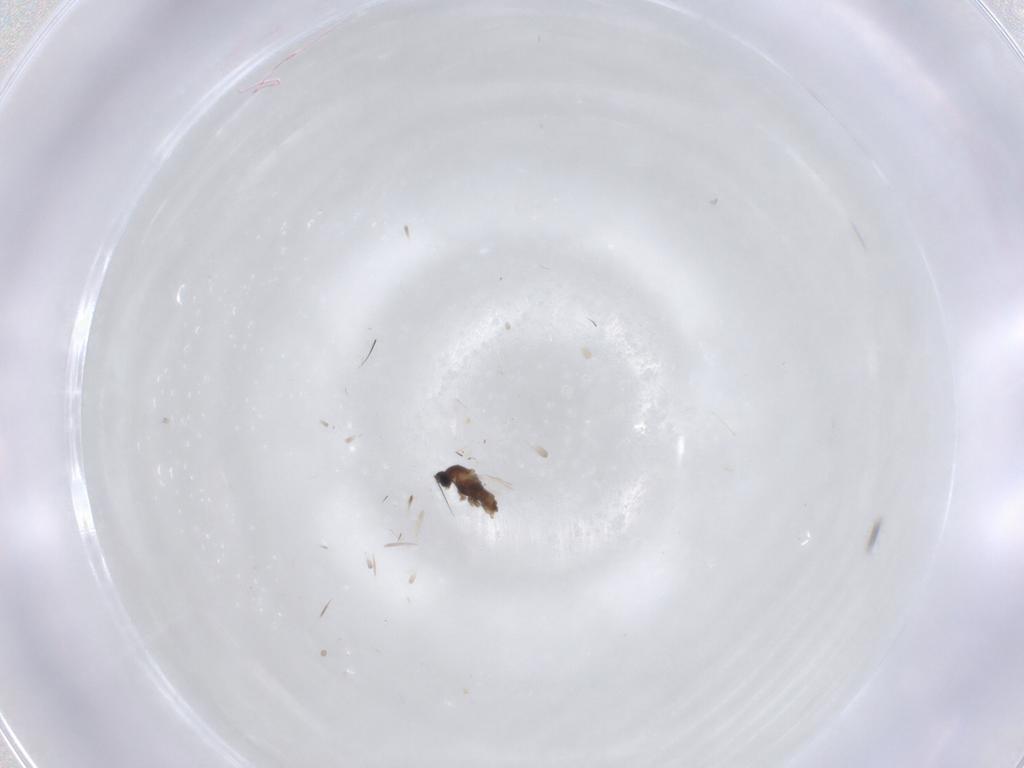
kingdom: Animalia
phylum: Arthropoda
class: Insecta
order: Diptera
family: Cecidomyiidae
